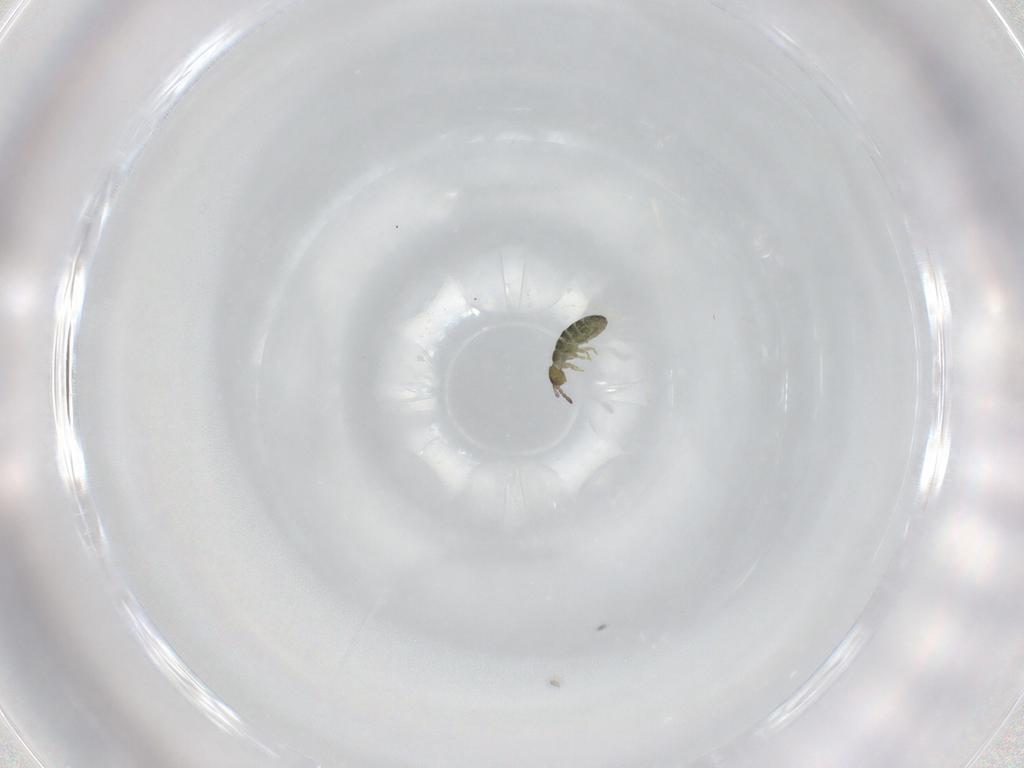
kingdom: Animalia
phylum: Arthropoda
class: Collembola
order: Entomobryomorpha
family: Isotomidae
